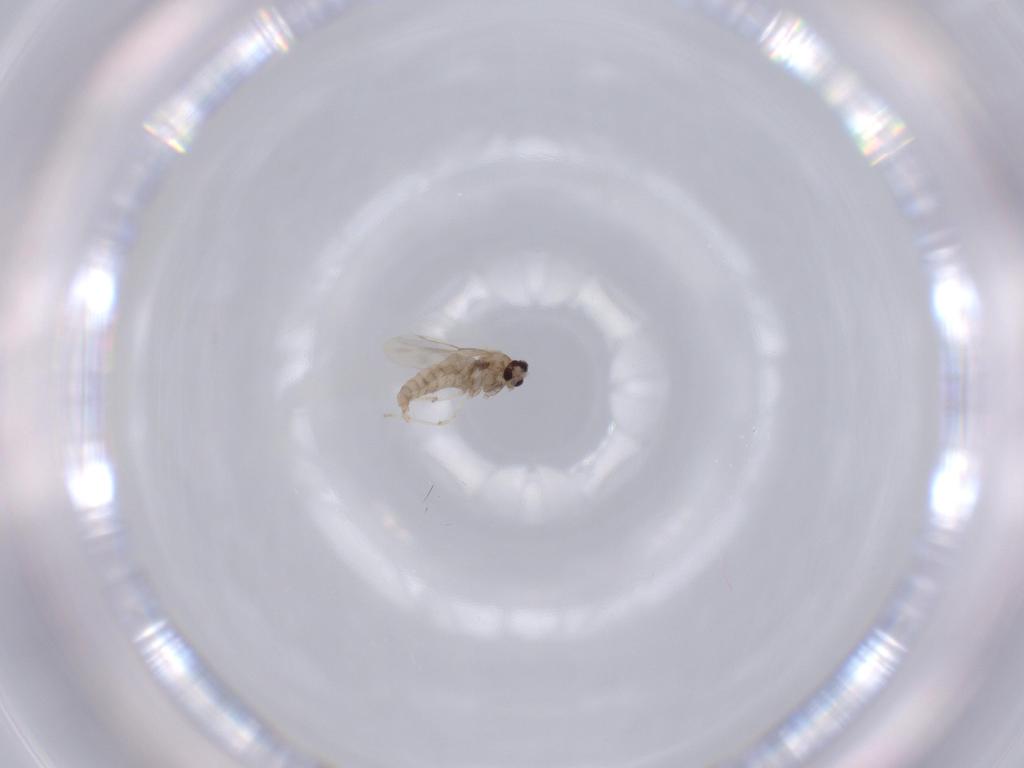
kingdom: Animalia
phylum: Arthropoda
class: Insecta
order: Diptera
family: Cecidomyiidae
